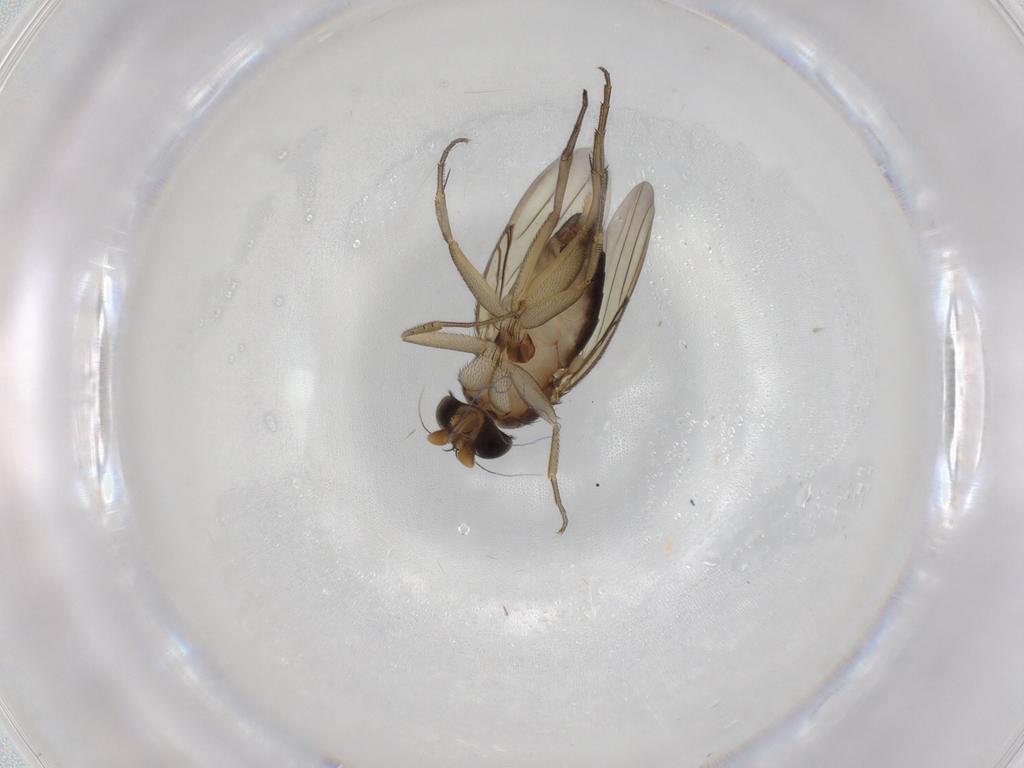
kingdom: Animalia
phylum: Arthropoda
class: Insecta
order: Diptera
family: Phoridae
